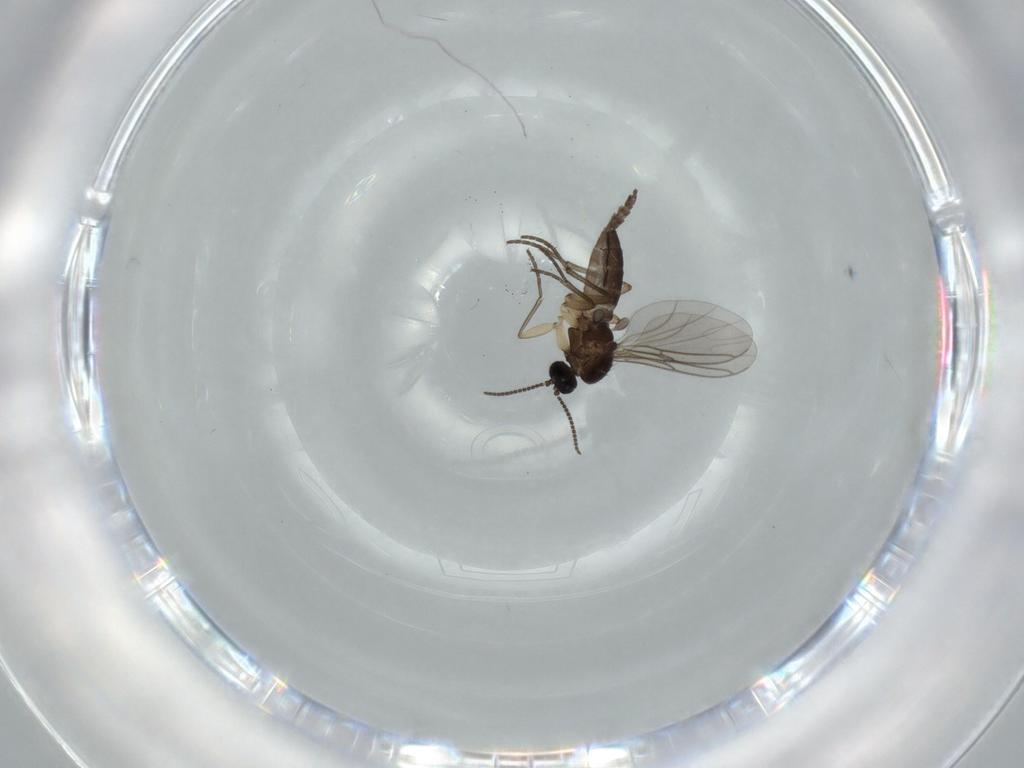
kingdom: Animalia
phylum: Arthropoda
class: Insecta
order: Diptera
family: Sciaridae
